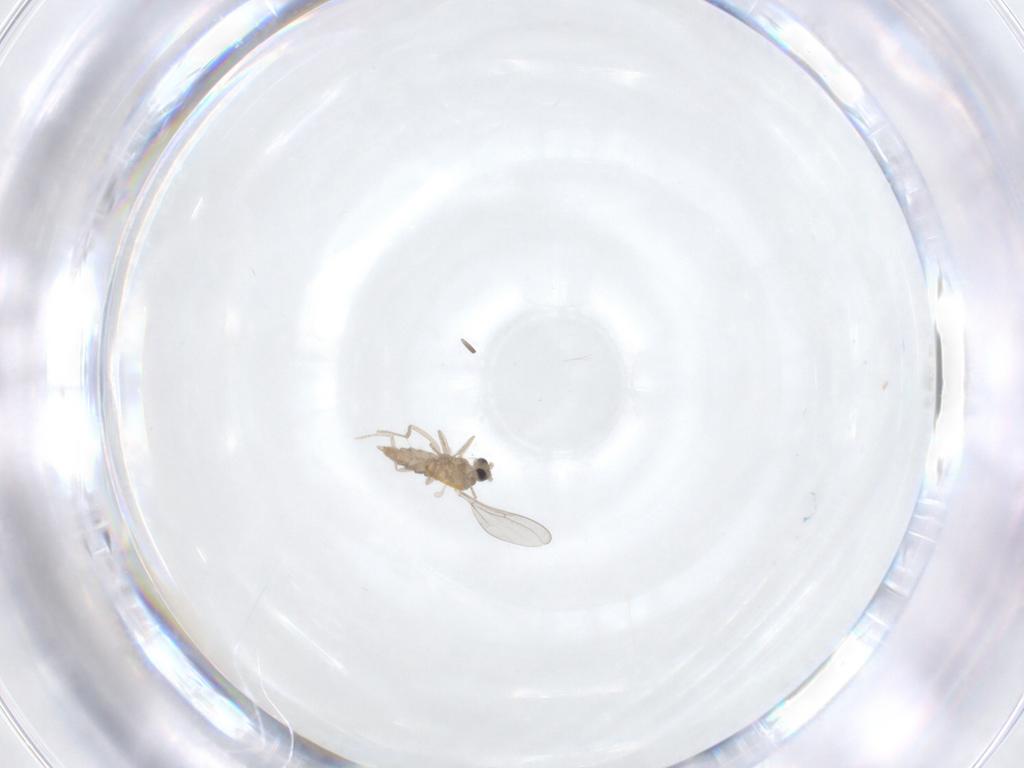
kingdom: Animalia
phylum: Arthropoda
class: Insecta
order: Diptera
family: Cecidomyiidae
